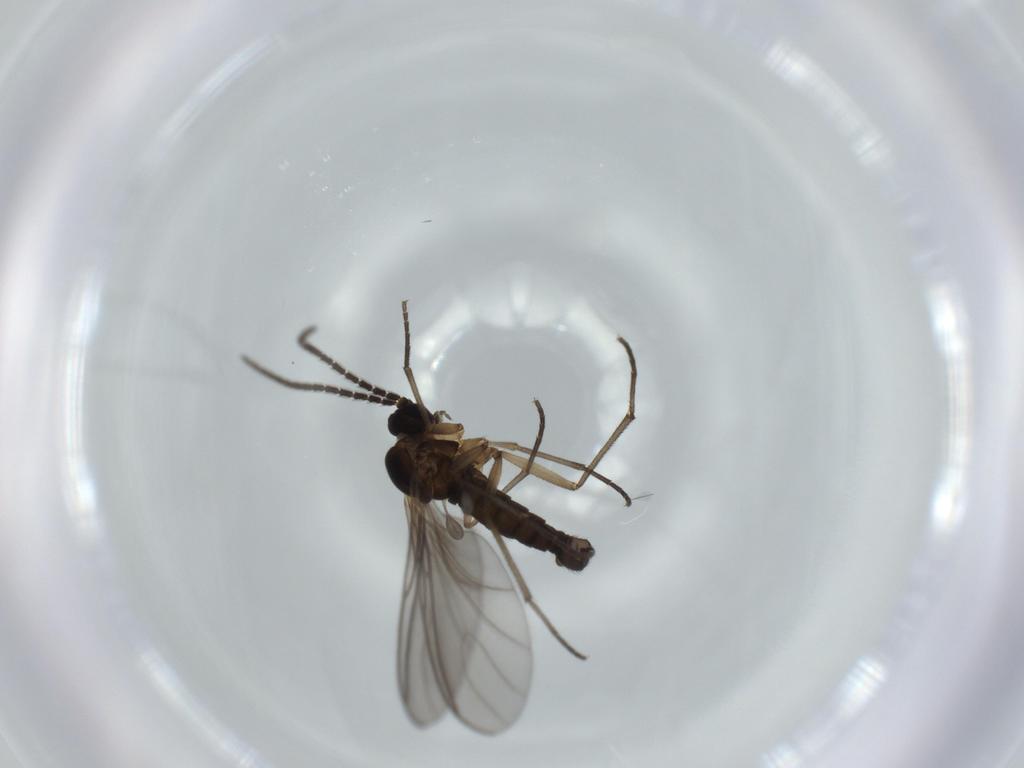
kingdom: Animalia
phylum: Arthropoda
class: Insecta
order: Diptera
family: Sciaridae
